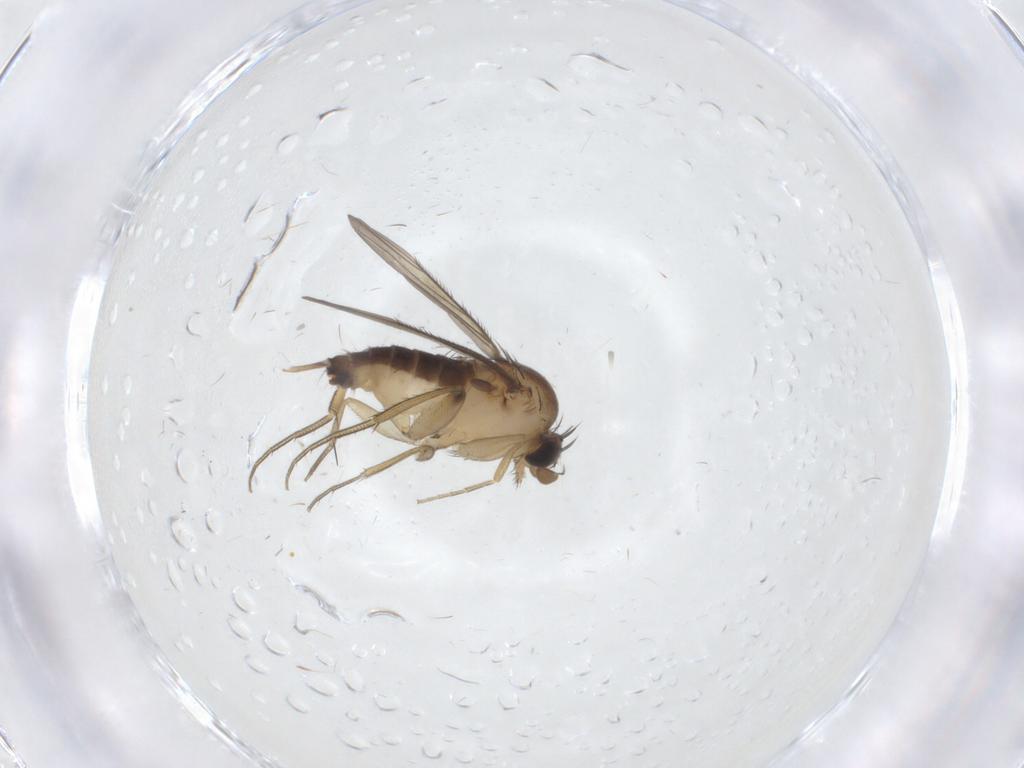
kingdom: Animalia
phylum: Arthropoda
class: Insecta
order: Diptera
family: Phoridae
